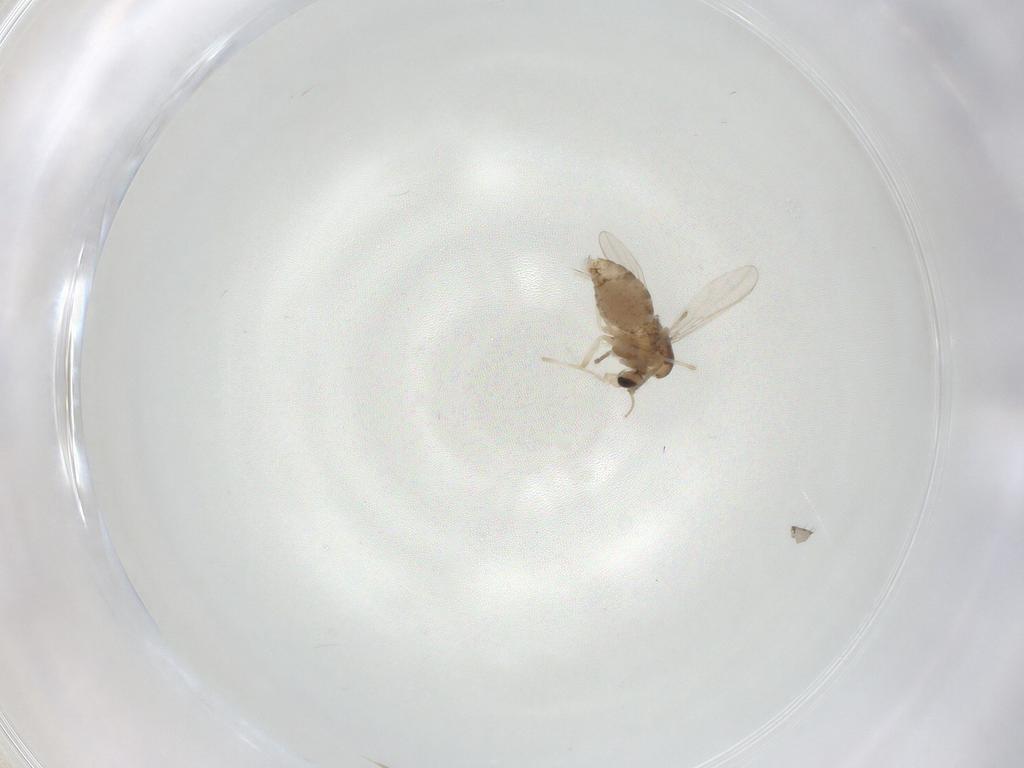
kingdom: Animalia
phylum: Arthropoda
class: Insecta
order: Diptera
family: Chironomidae
